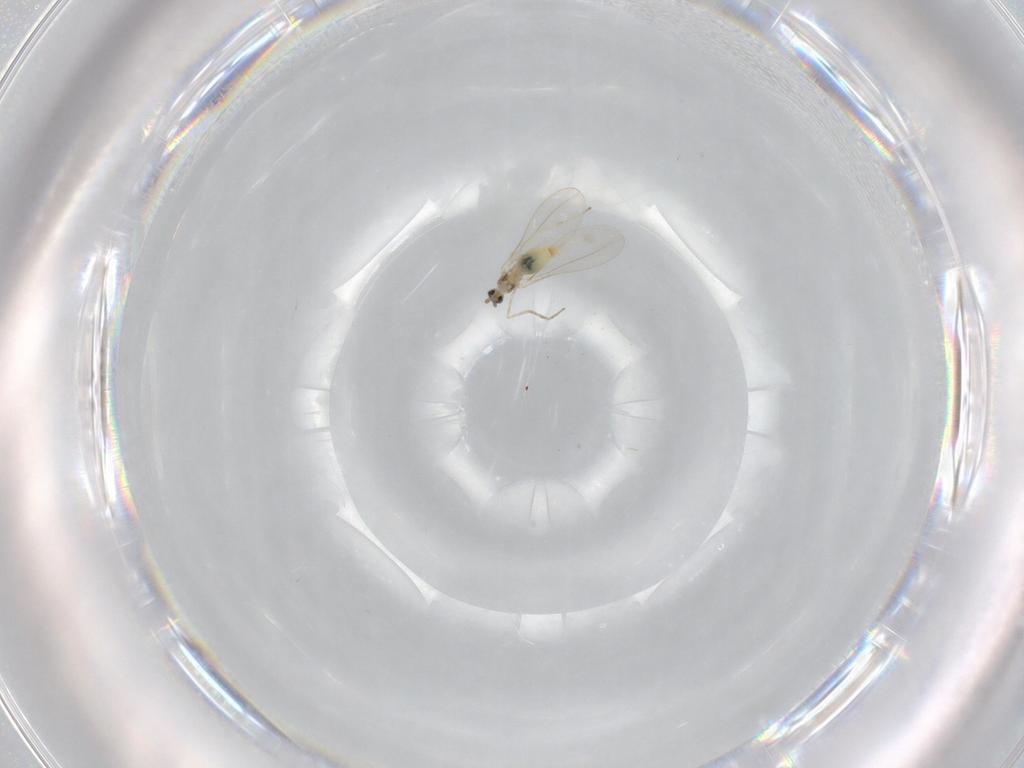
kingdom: Animalia
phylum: Arthropoda
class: Insecta
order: Diptera
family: Cecidomyiidae
